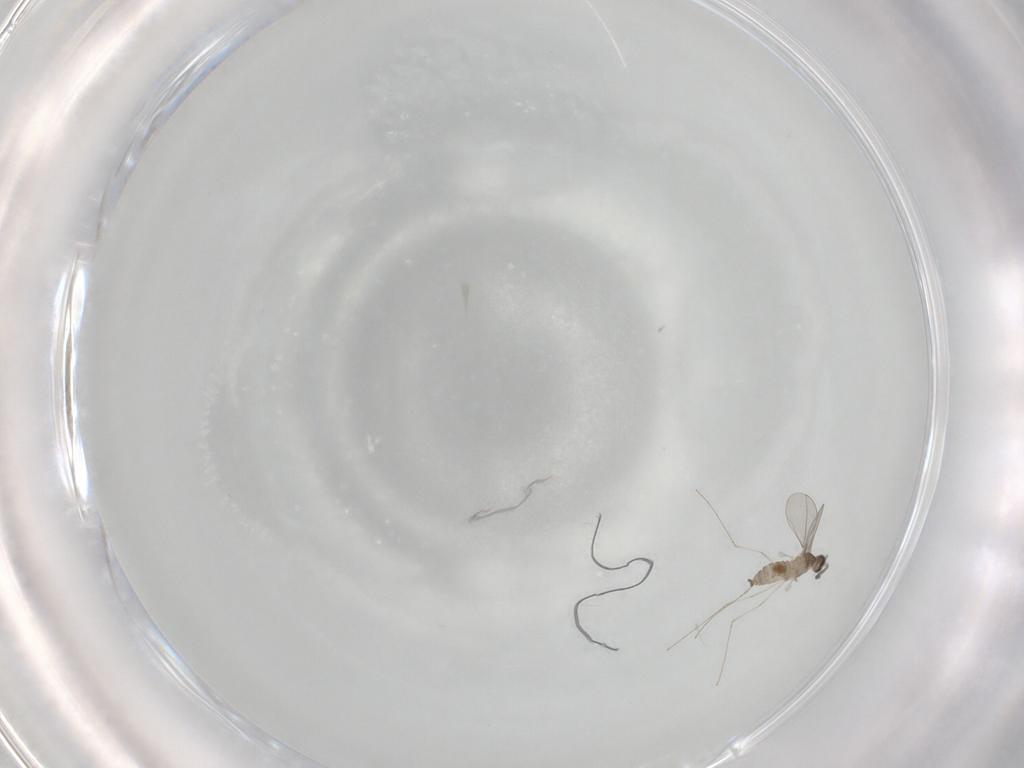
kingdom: Animalia
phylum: Arthropoda
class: Insecta
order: Diptera
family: Cecidomyiidae
